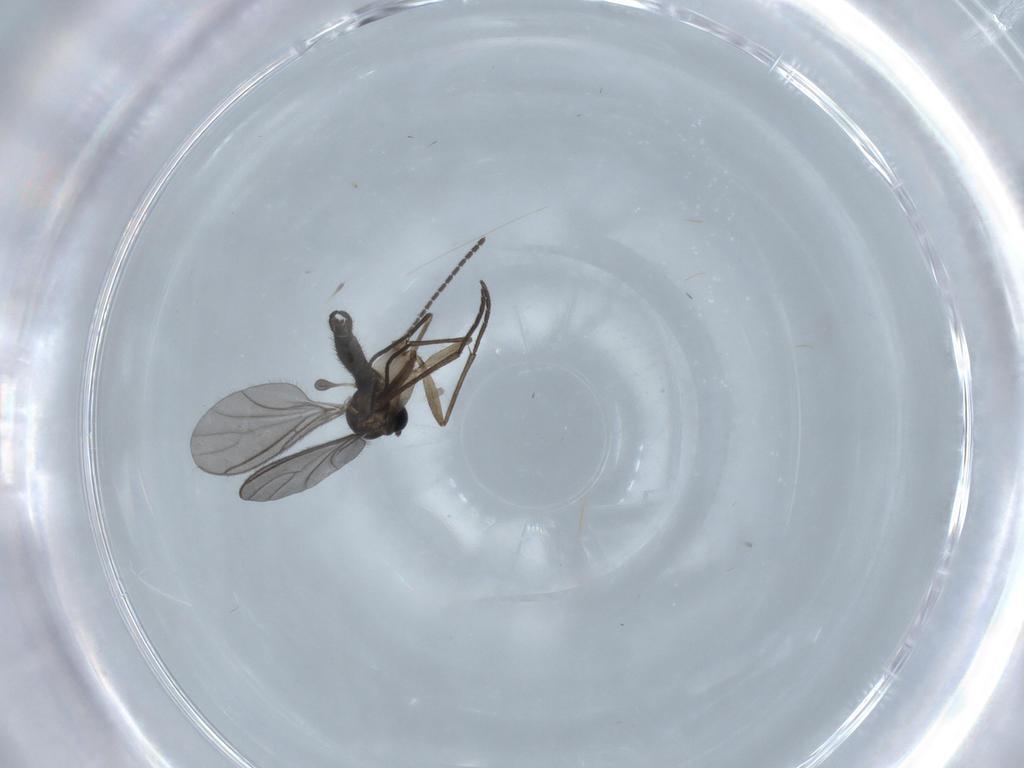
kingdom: Animalia
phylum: Arthropoda
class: Insecta
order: Diptera
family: Sciaridae
